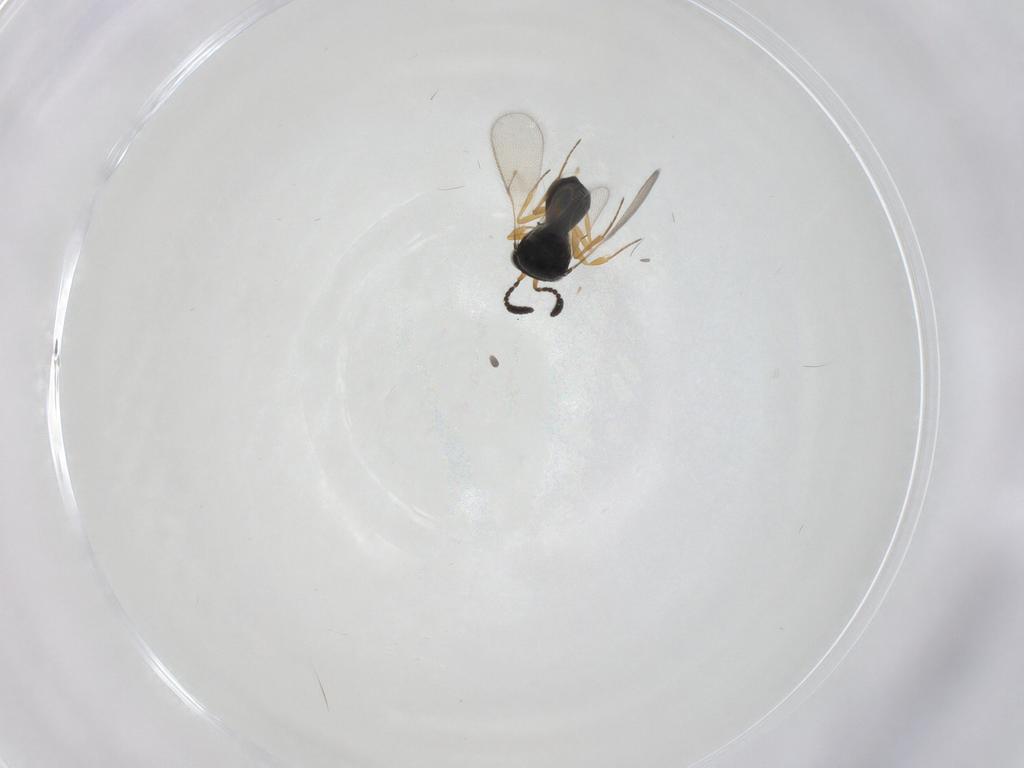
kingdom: Animalia
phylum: Arthropoda
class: Insecta
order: Hymenoptera
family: Scelionidae
